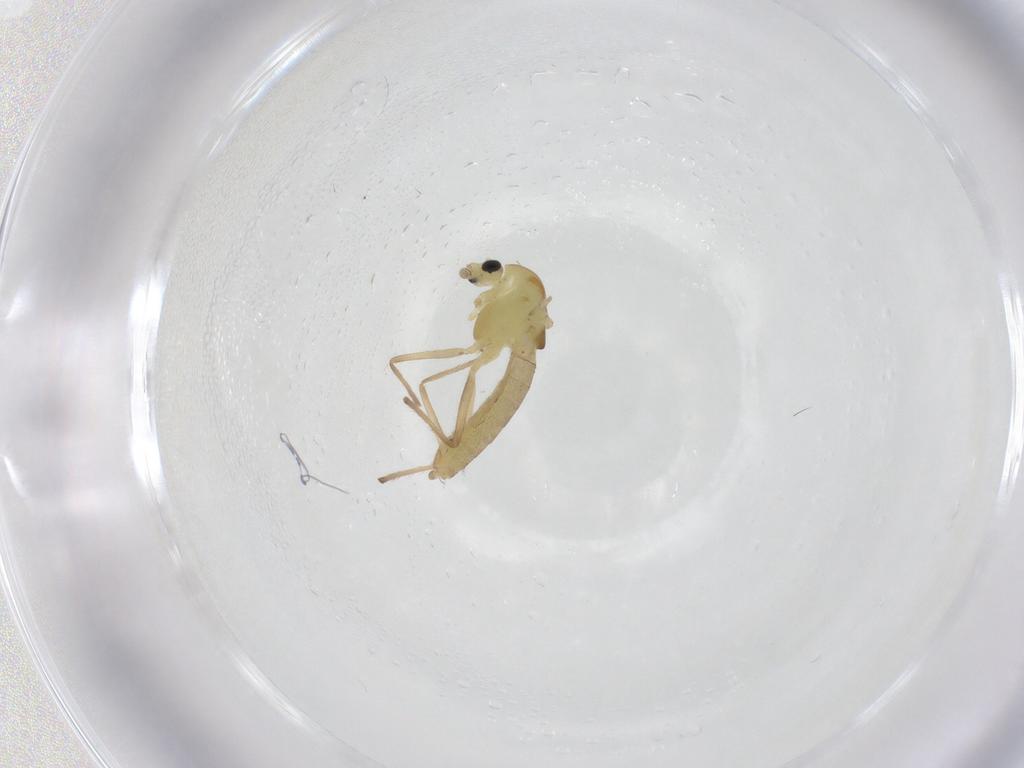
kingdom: Animalia
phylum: Arthropoda
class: Insecta
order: Diptera
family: Chironomidae
